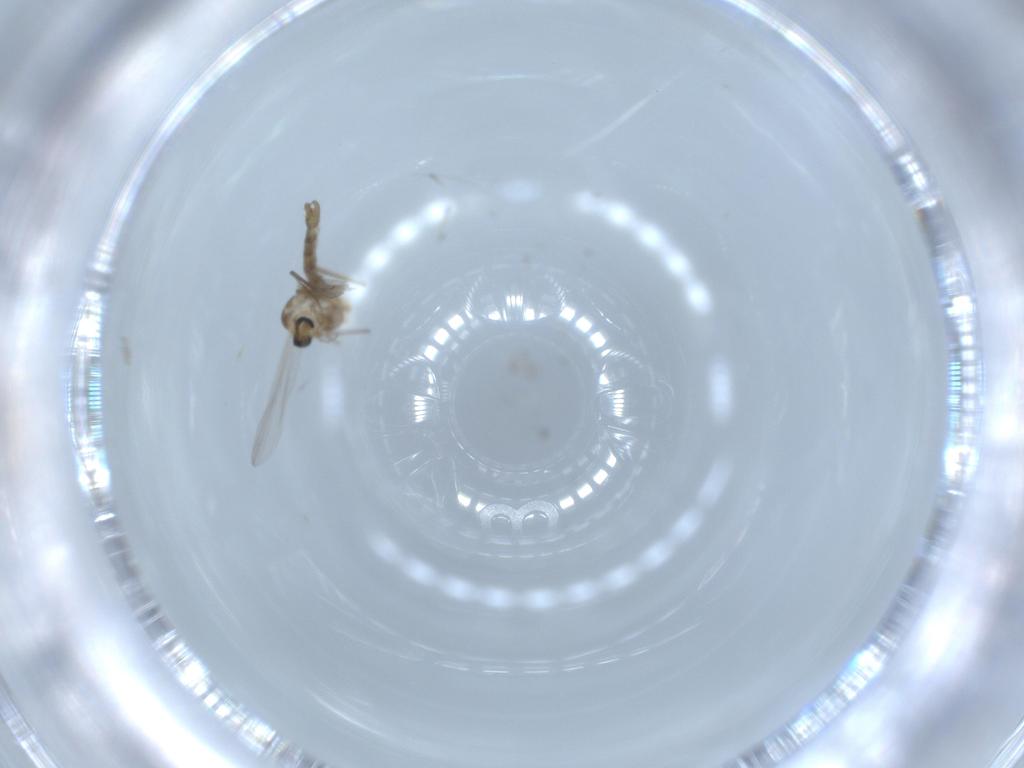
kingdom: Animalia
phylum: Arthropoda
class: Insecta
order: Diptera
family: Chironomidae
